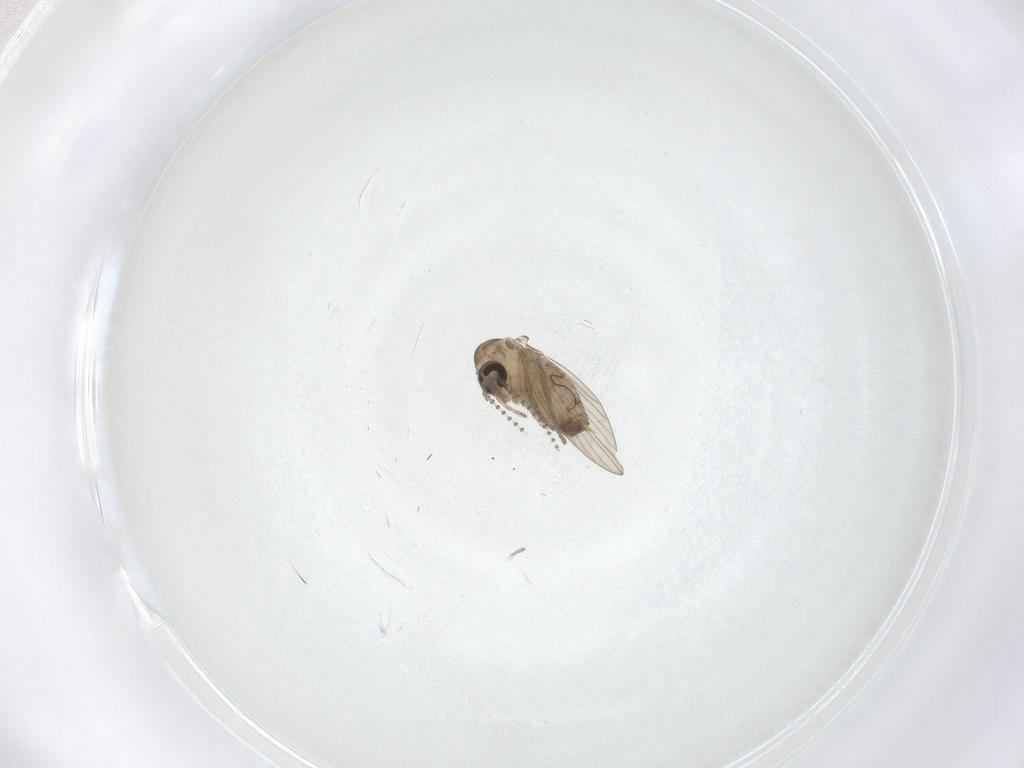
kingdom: Animalia
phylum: Arthropoda
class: Insecta
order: Diptera
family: Psychodidae
